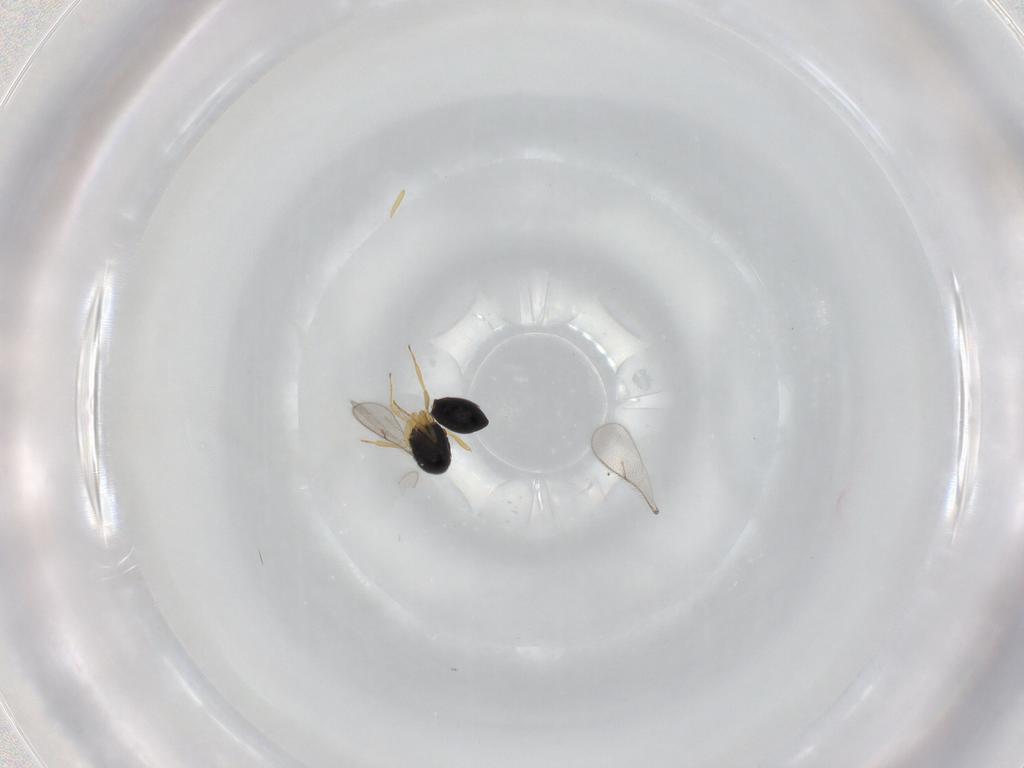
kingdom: Animalia
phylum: Arthropoda
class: Insecta
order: Hymenoptera
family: Scelionidae
